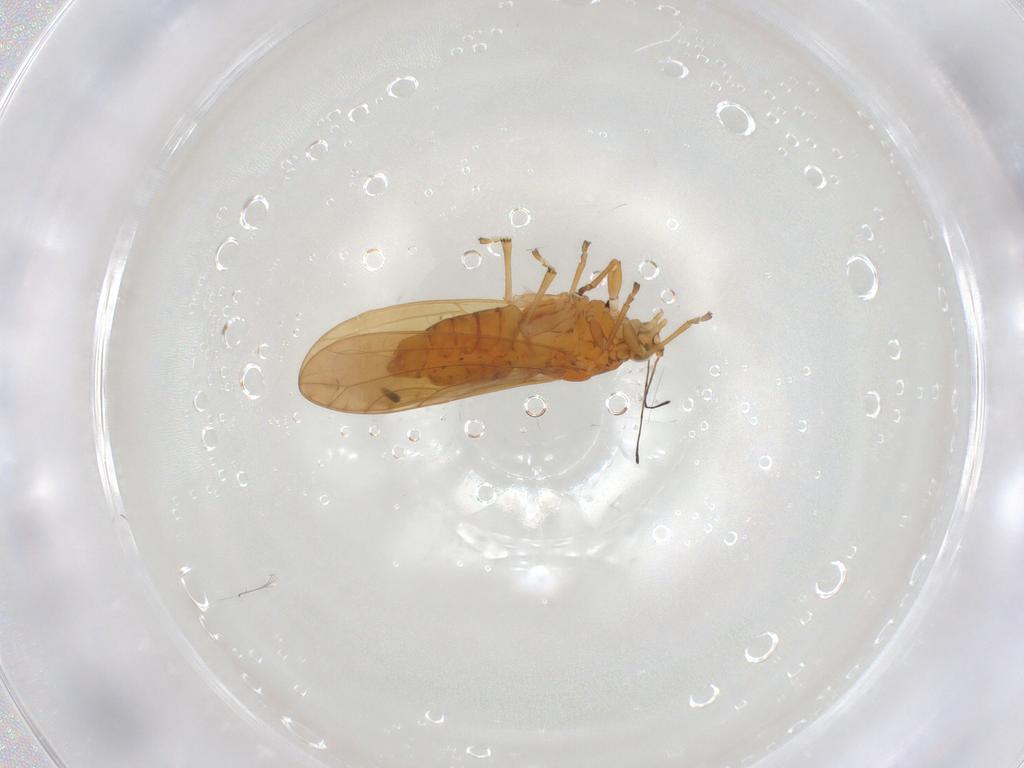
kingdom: Animalia
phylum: Arthropoda
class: Insecta
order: Hemiptera
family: Triozidae
